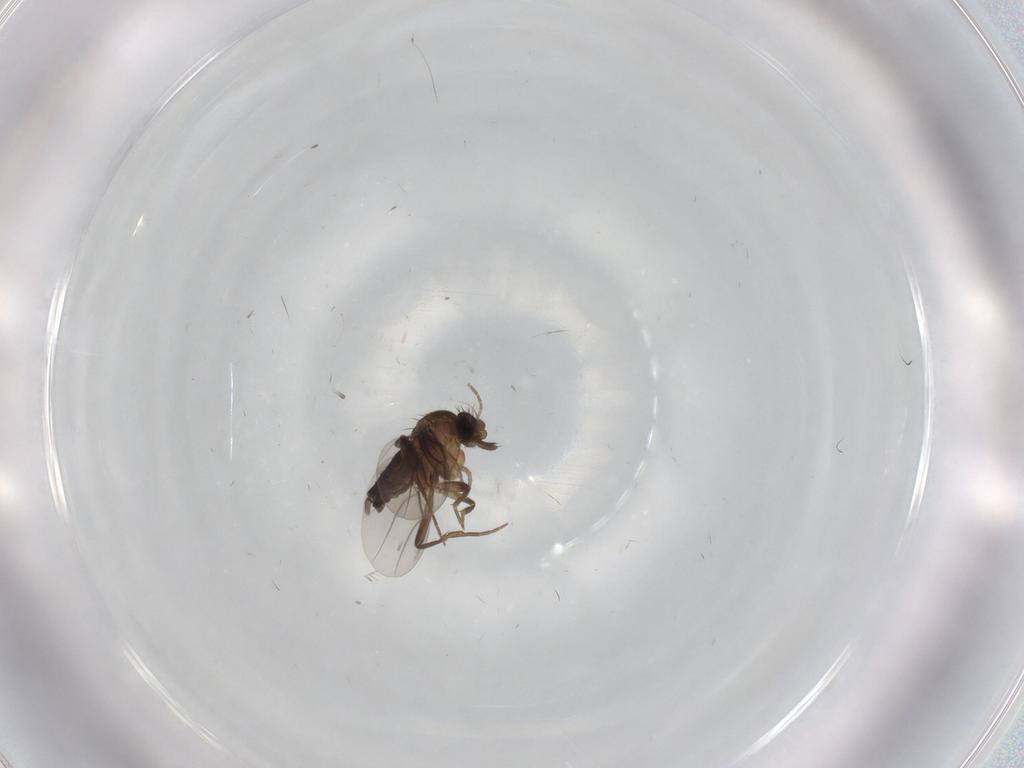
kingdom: Animalia
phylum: Arthropoda
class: Insecta
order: Diptera
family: Cecidomyiidae
